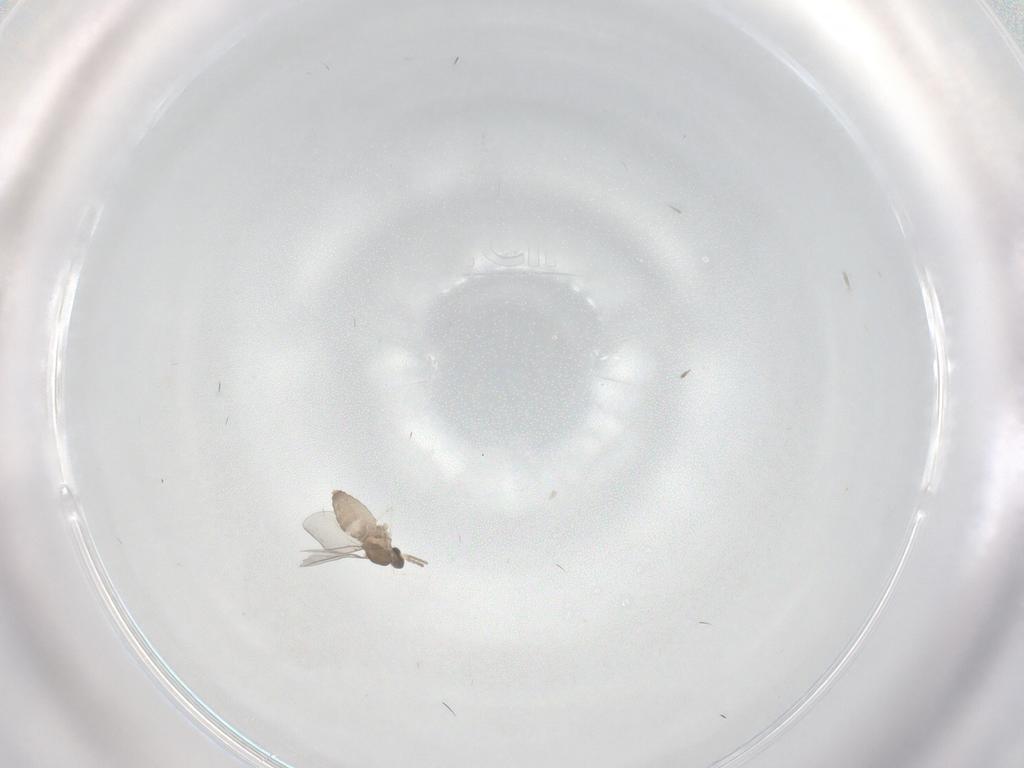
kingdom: Animalia
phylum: Arthropoda
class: Insecta
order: Diptera
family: Cecidomyiidae
